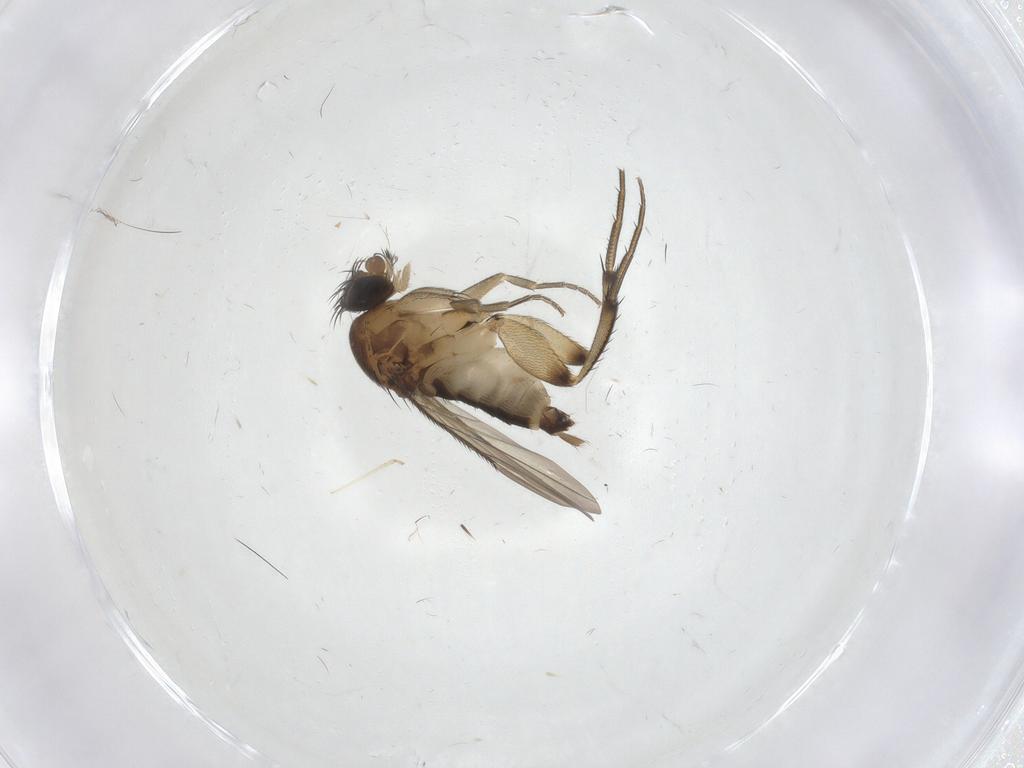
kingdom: Animalia
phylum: Arthropoda
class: Insecta
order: Diptera
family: Phoridae
